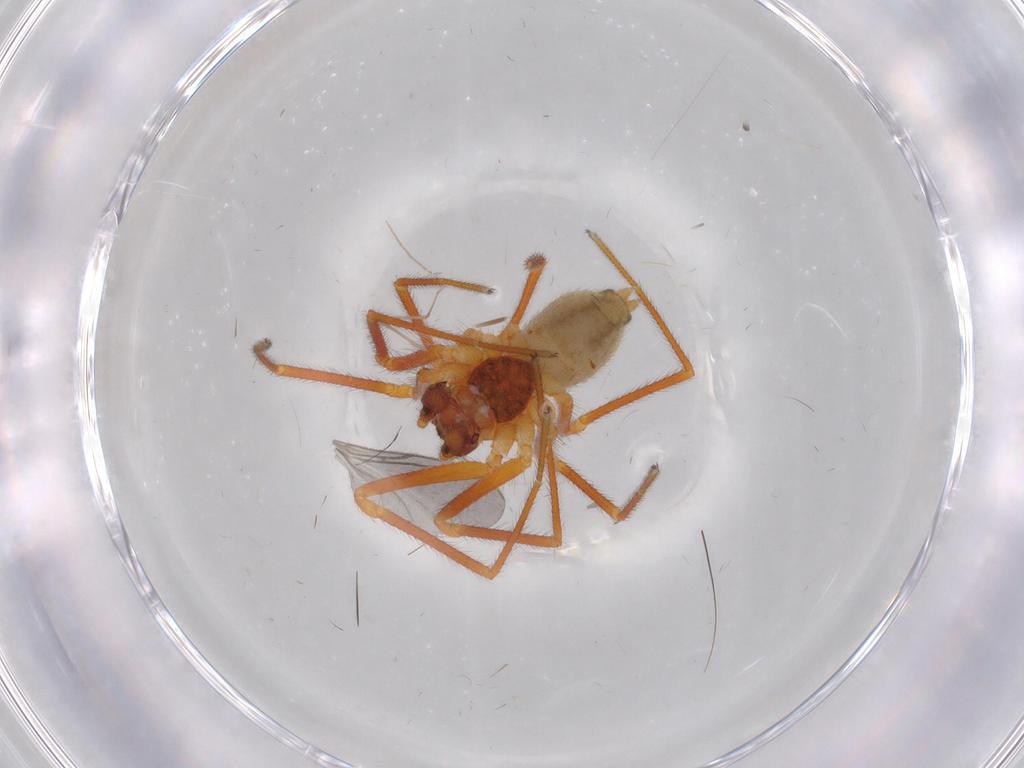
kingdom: Animalia
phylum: Arthropoda
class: Arachnida
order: Araneae
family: Linyphiidae
